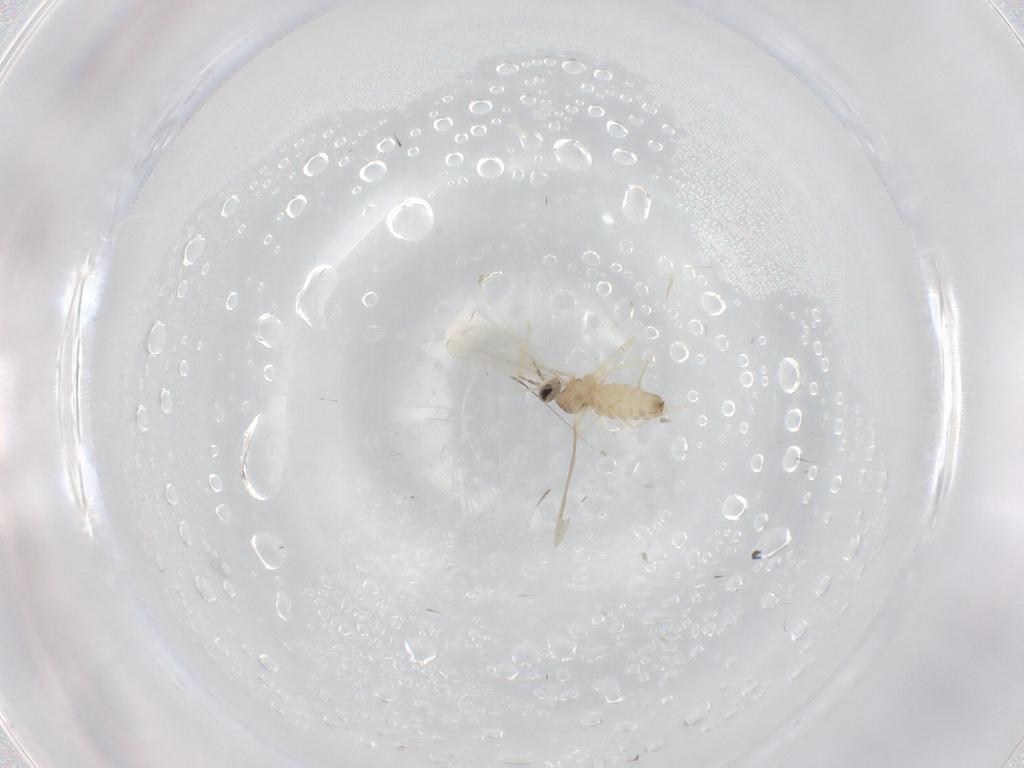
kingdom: Animalia
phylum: Arthropoda
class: Insecta
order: Diptera
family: Cecidomyiidae
